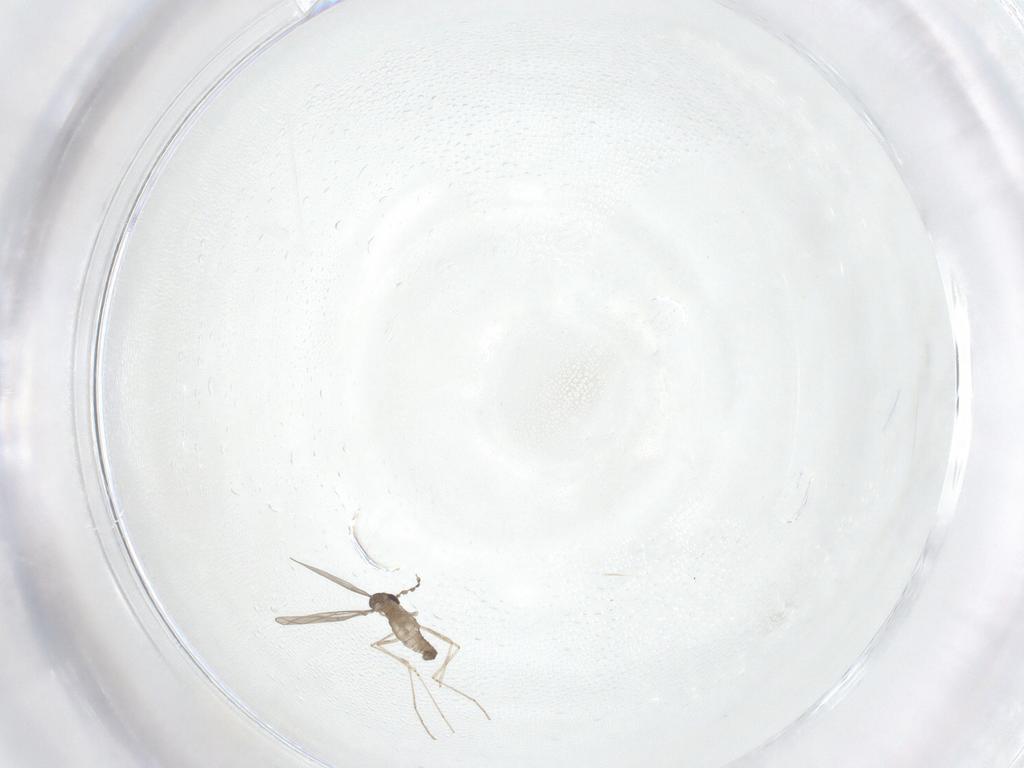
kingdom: Animalia
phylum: Arthropoda
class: Insecta
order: Diptera
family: Cecidomyiidae
